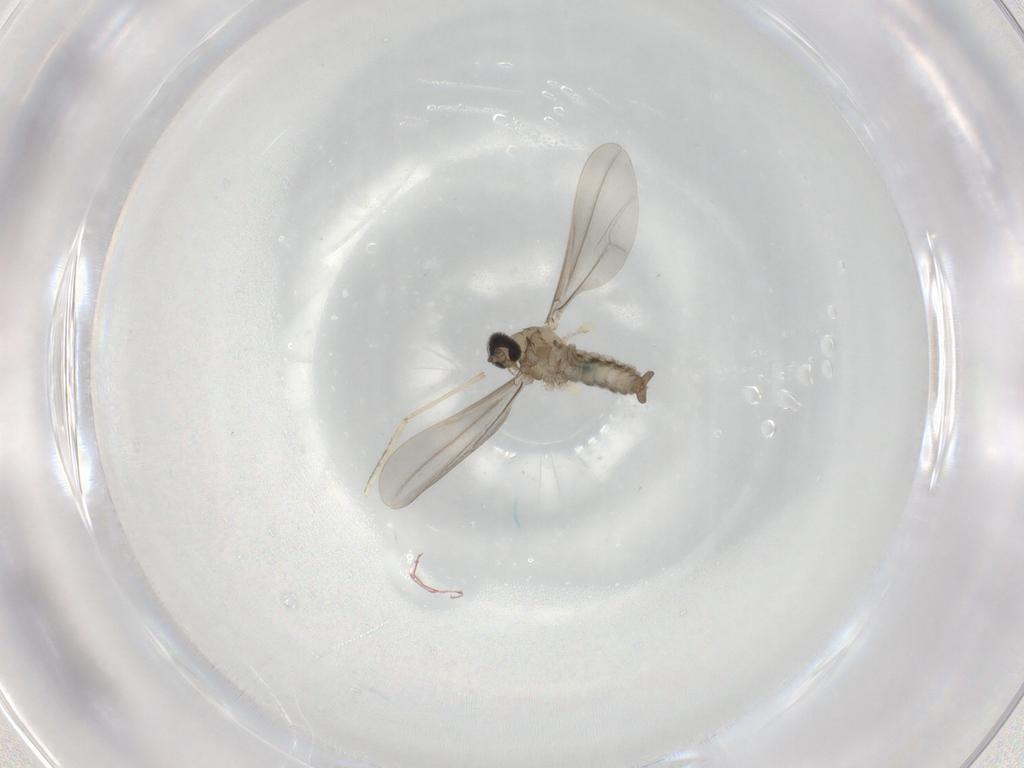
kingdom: Animalia
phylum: Arthropoda
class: Insecta
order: Diptera
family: Cecidomyiidae
